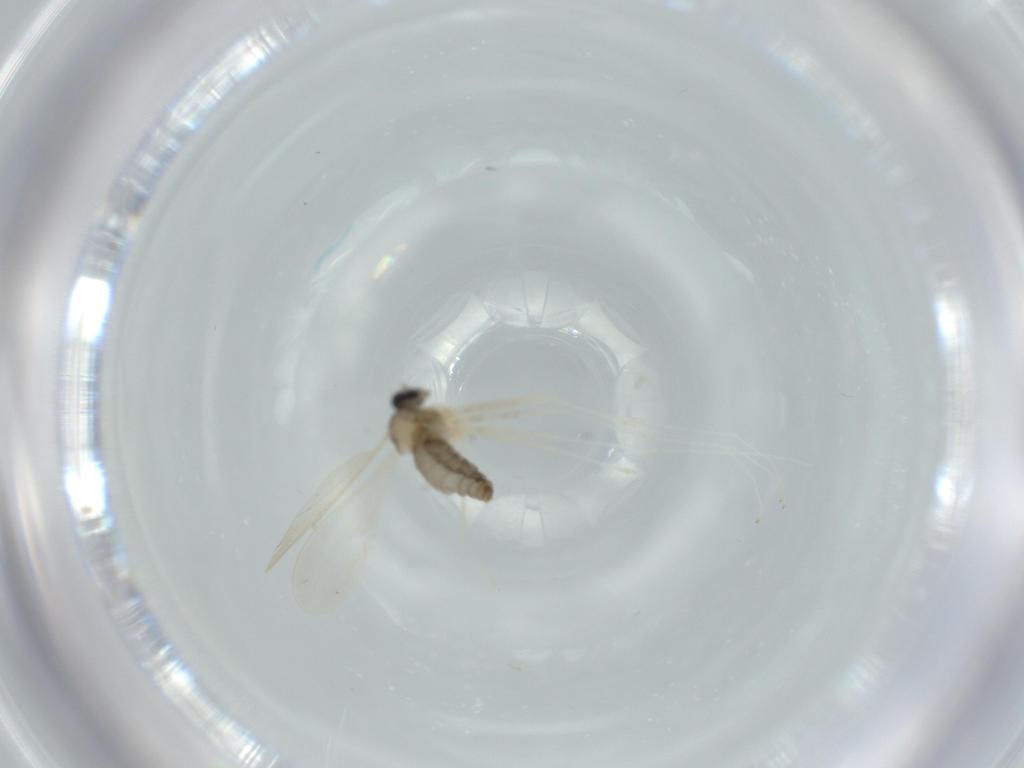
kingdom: Animalia
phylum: Arthropoda
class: Insecta
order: Diptera
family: Cecidomyiidae
